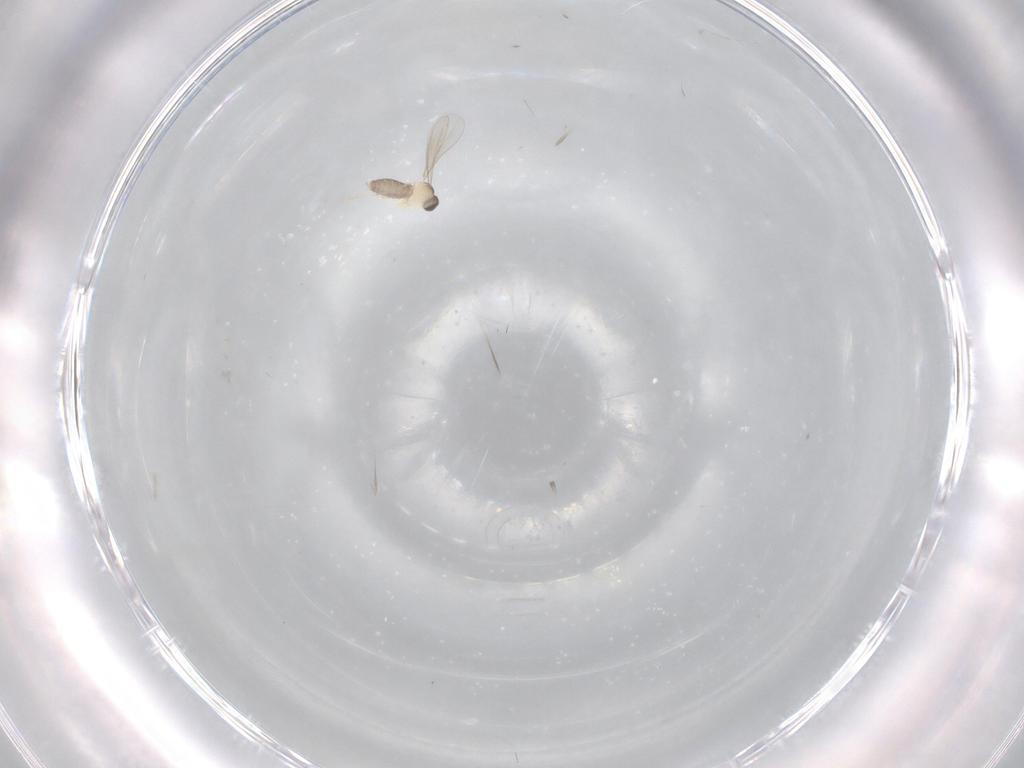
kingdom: Animalia
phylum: Arthropoda
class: Insecta
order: Diptera
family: Cecidomyiidae
